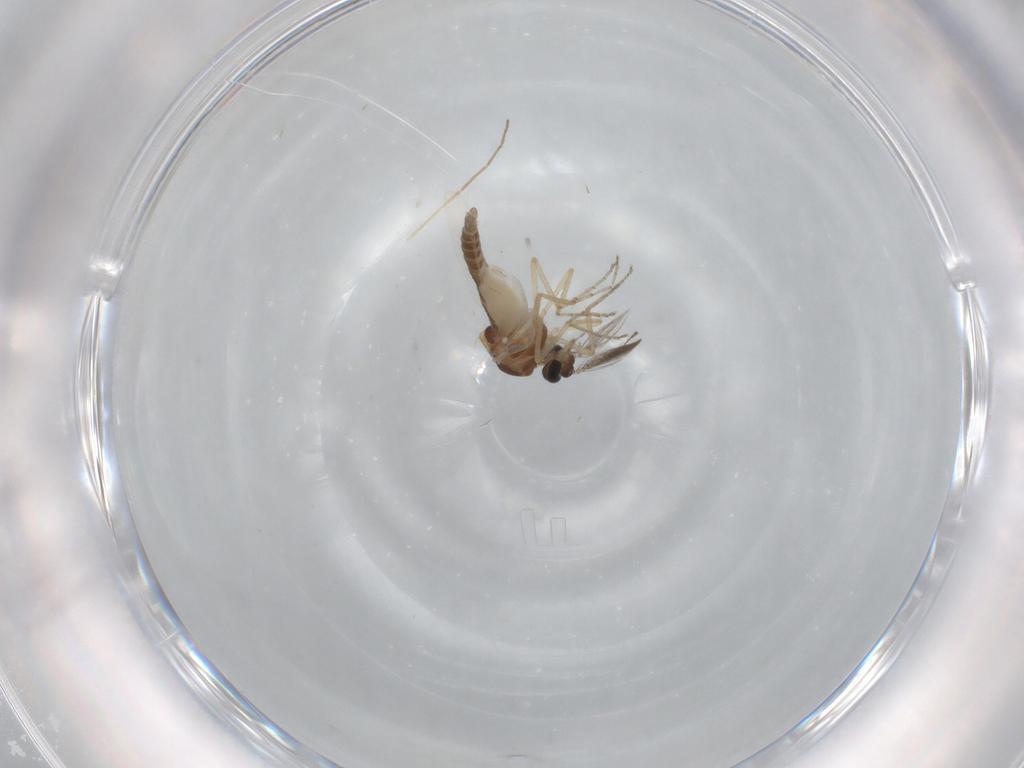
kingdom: Animalia
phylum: Arthropoda
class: Insecta
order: Diptera
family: Ceratopogonidae
